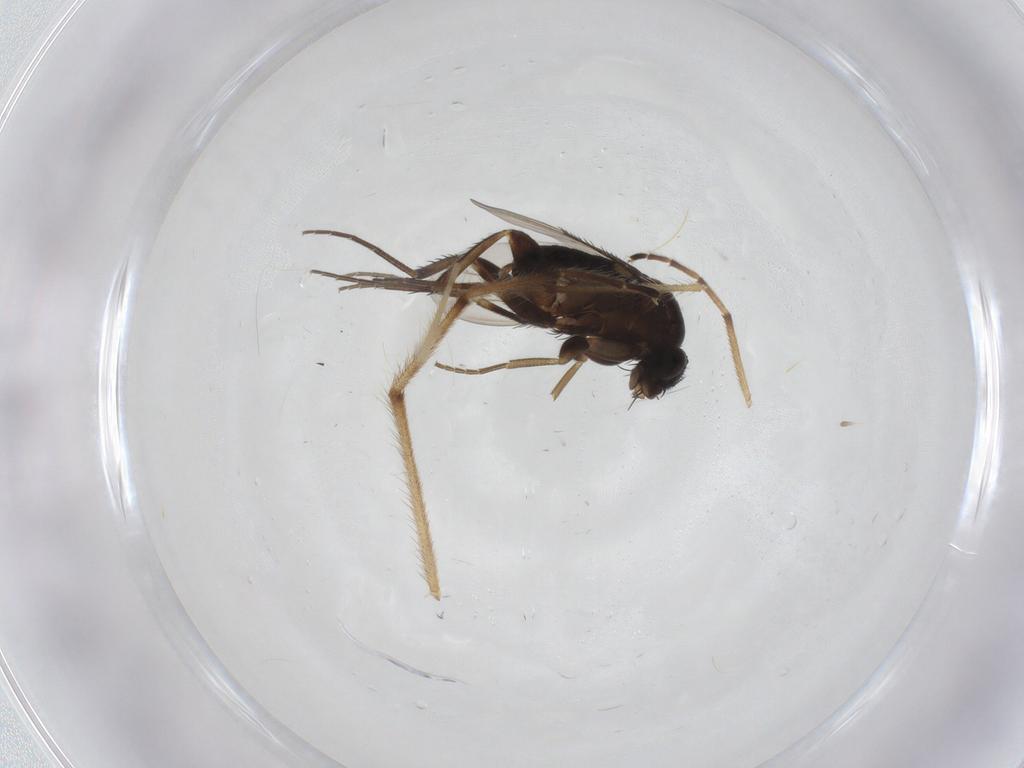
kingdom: Animalia
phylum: Arthropoda
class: Insecta
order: Diptera
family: Phoridae
